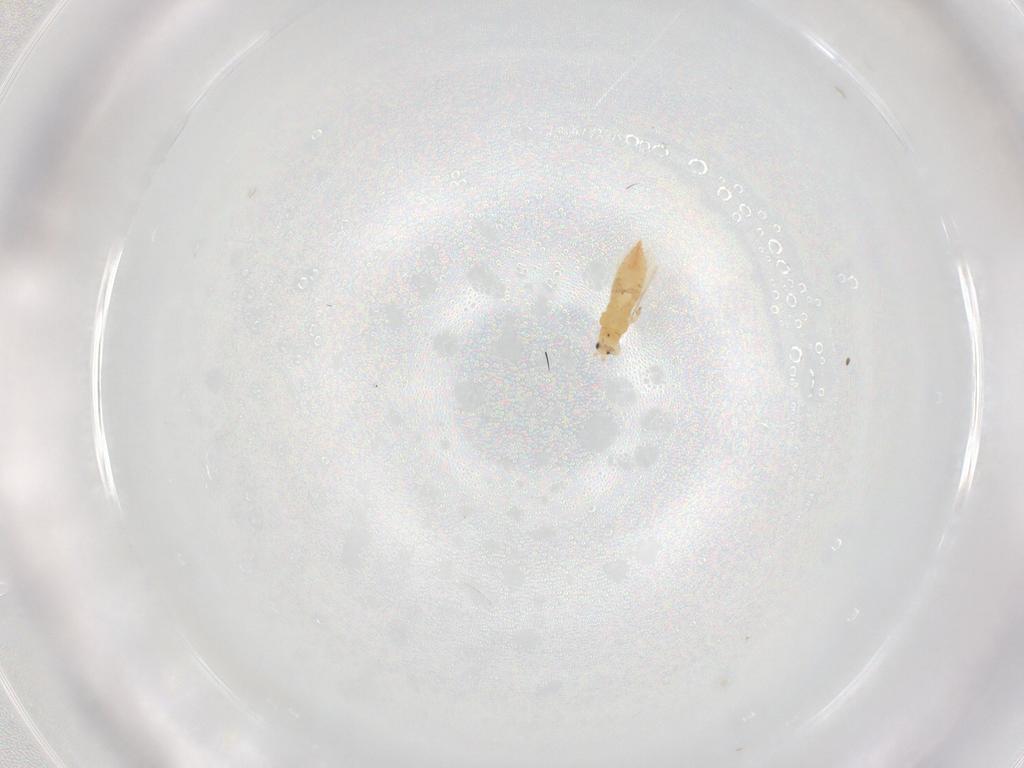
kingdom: Animalia
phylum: Arthropoda
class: Insecta
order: Thysanoptera
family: Thripidae
